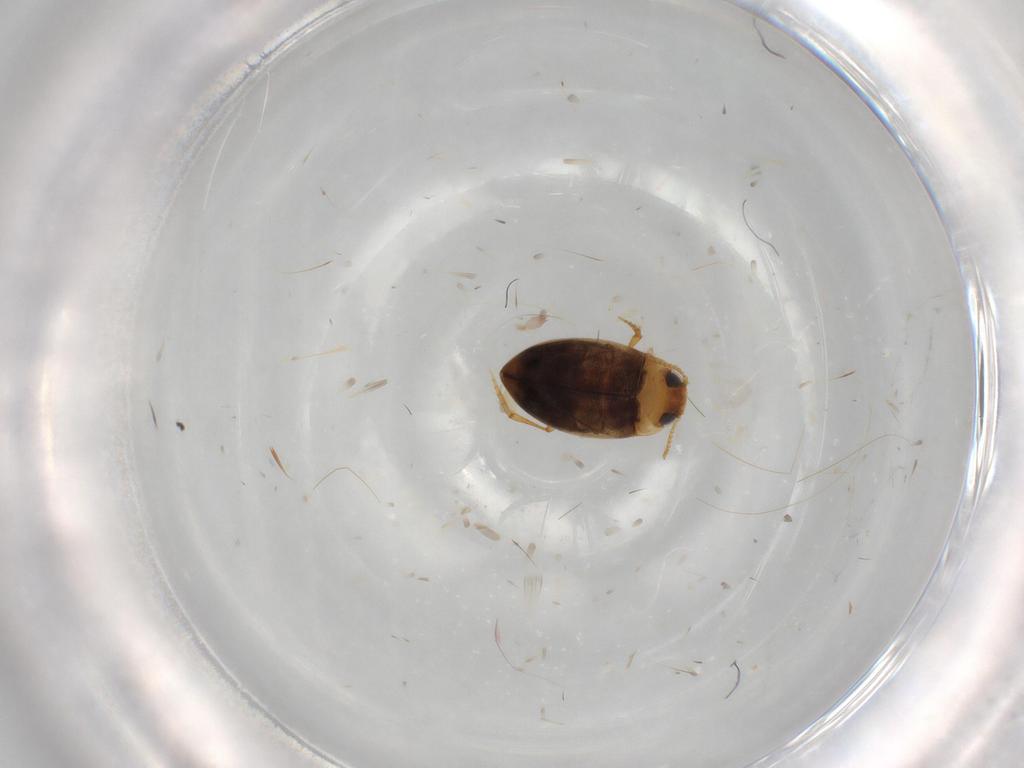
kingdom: Animalia
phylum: Arthropoda
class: Insecta
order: Coleoptera
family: Dytiscidae
